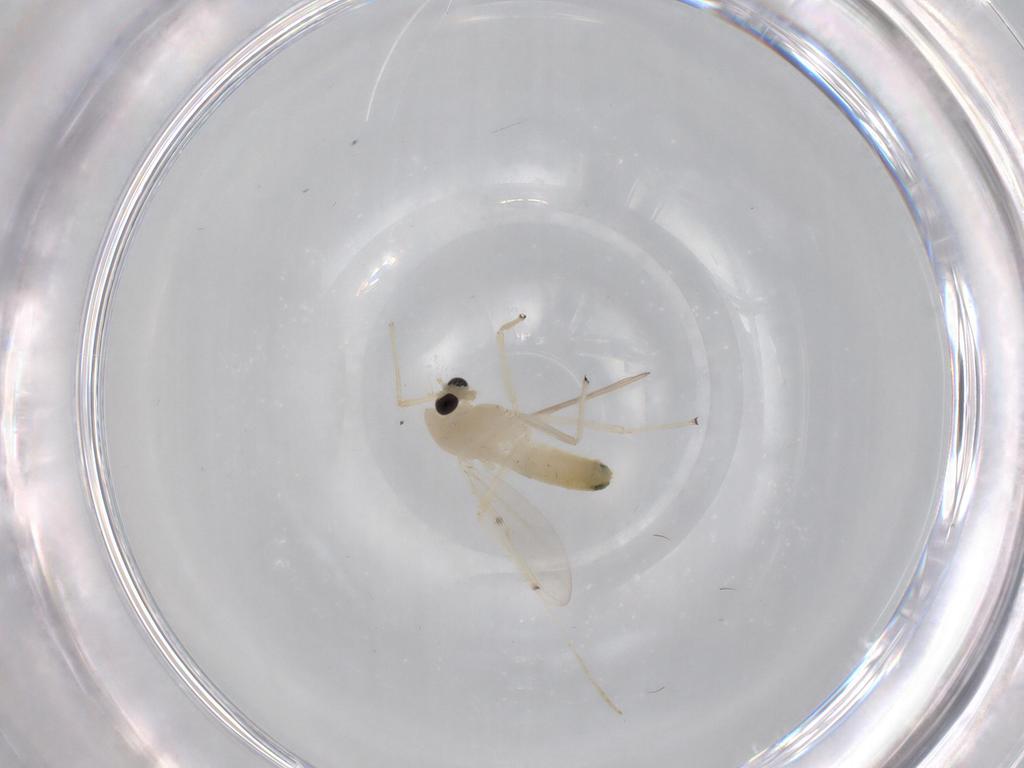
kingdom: Animalia
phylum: Arthropoda
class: Insecta
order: Diptera
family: Chironomidae
